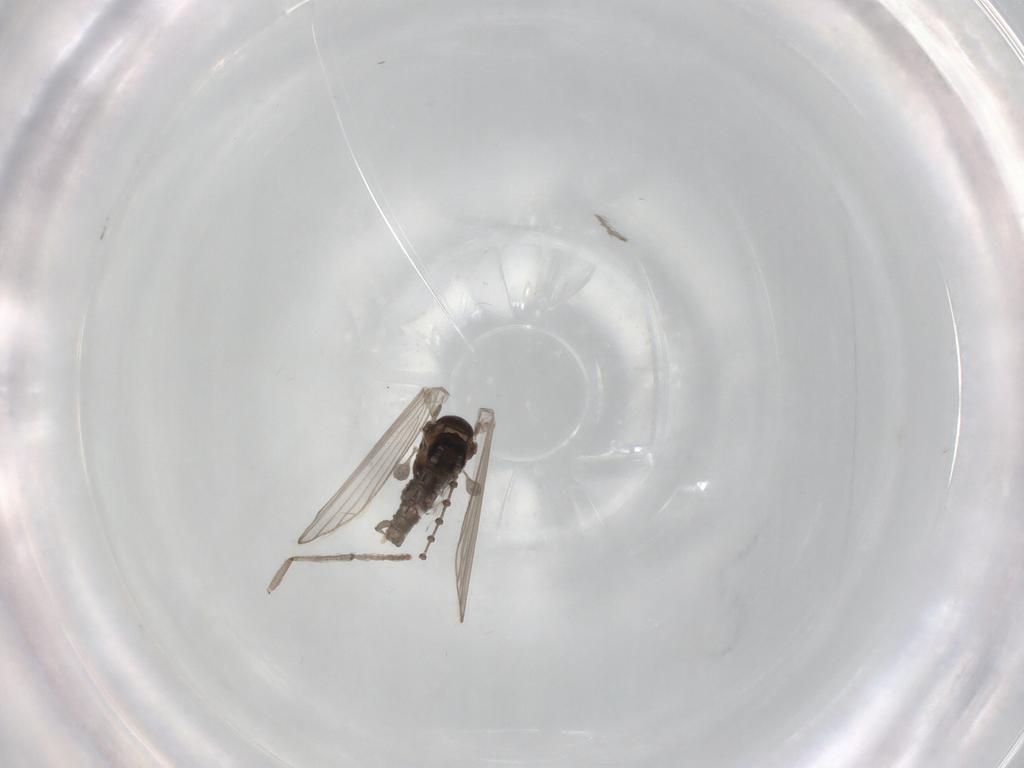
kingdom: Animalia
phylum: Arthropoda
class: Insecta
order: Diptera
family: Psychodidae
